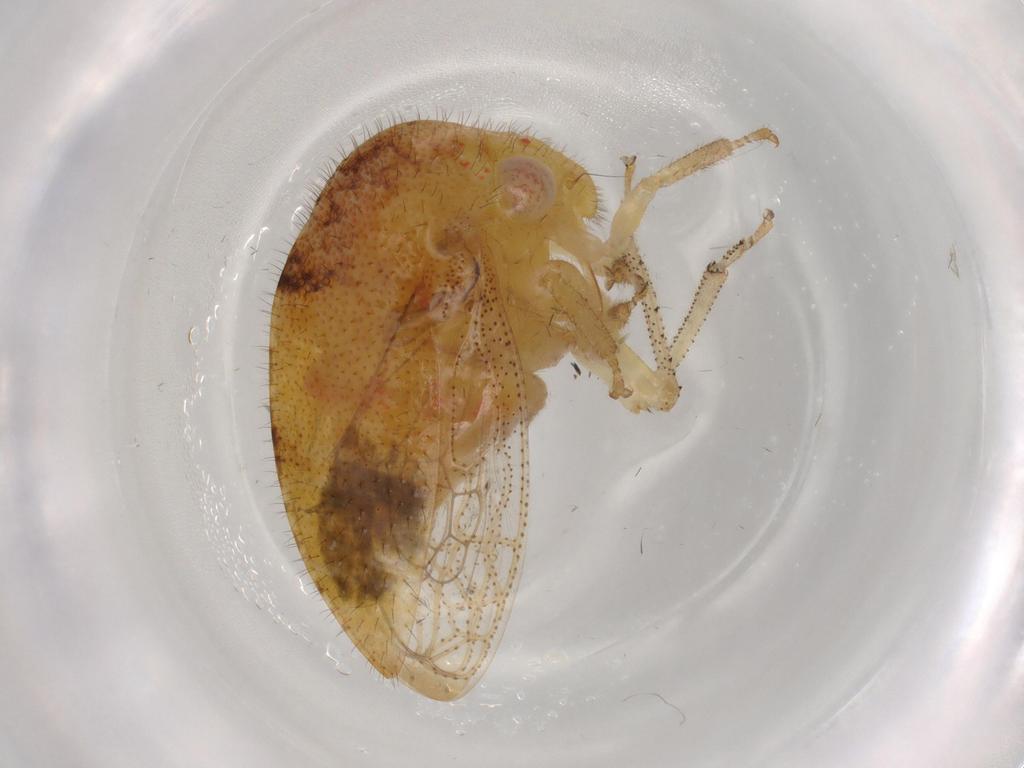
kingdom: Animalia
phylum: Arthropoda
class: Insecta
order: Hemiptera
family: Membracidae
